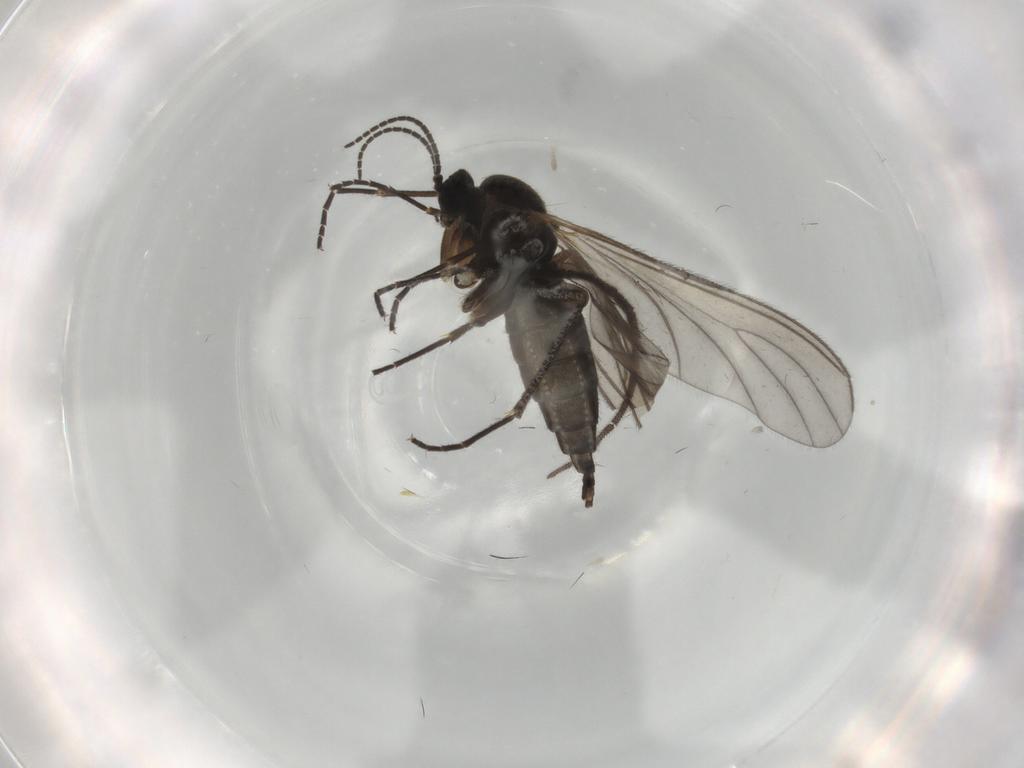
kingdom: Animalia
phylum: Arthropoda
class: Insecta
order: Diptera
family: Sciaridae
